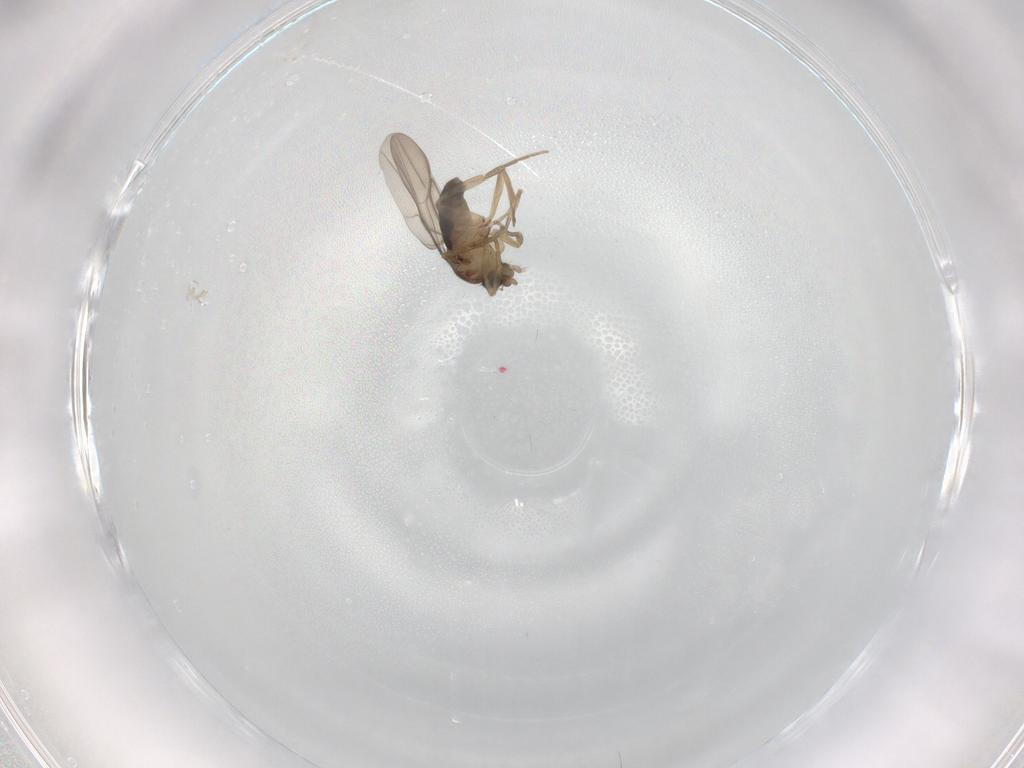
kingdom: Animalia
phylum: Arthropoda
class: Insecta
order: Diptera
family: Phoridae
